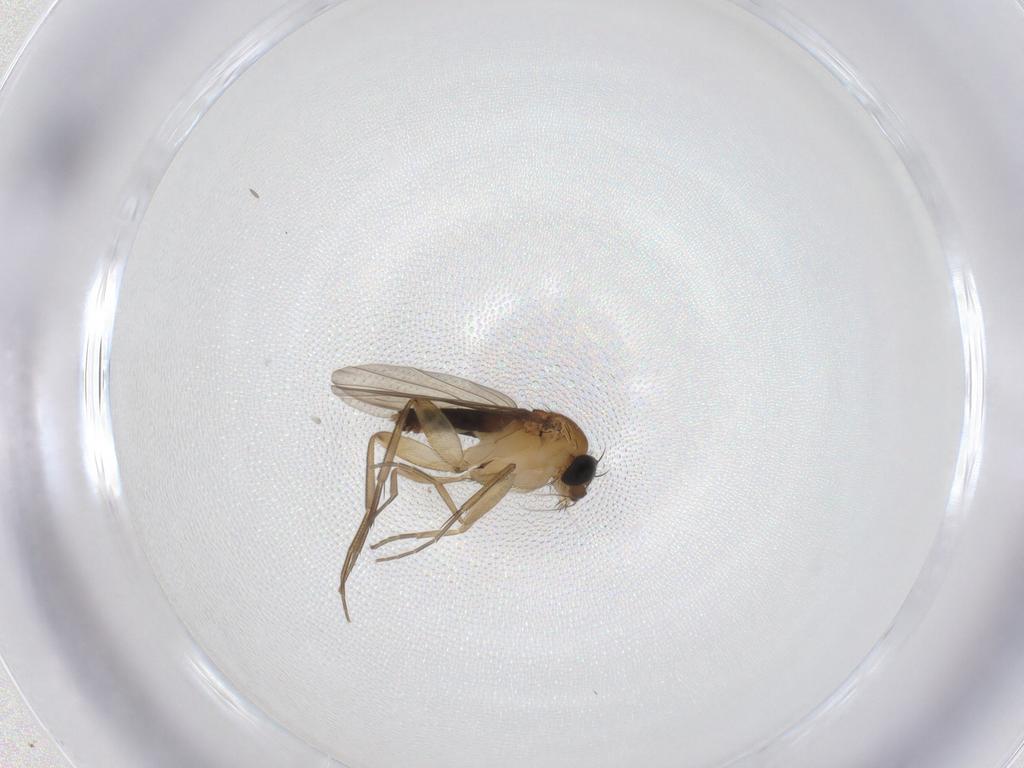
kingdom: Animalia
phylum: Arthropoda
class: Insecta
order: Diptera
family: Phoridae
